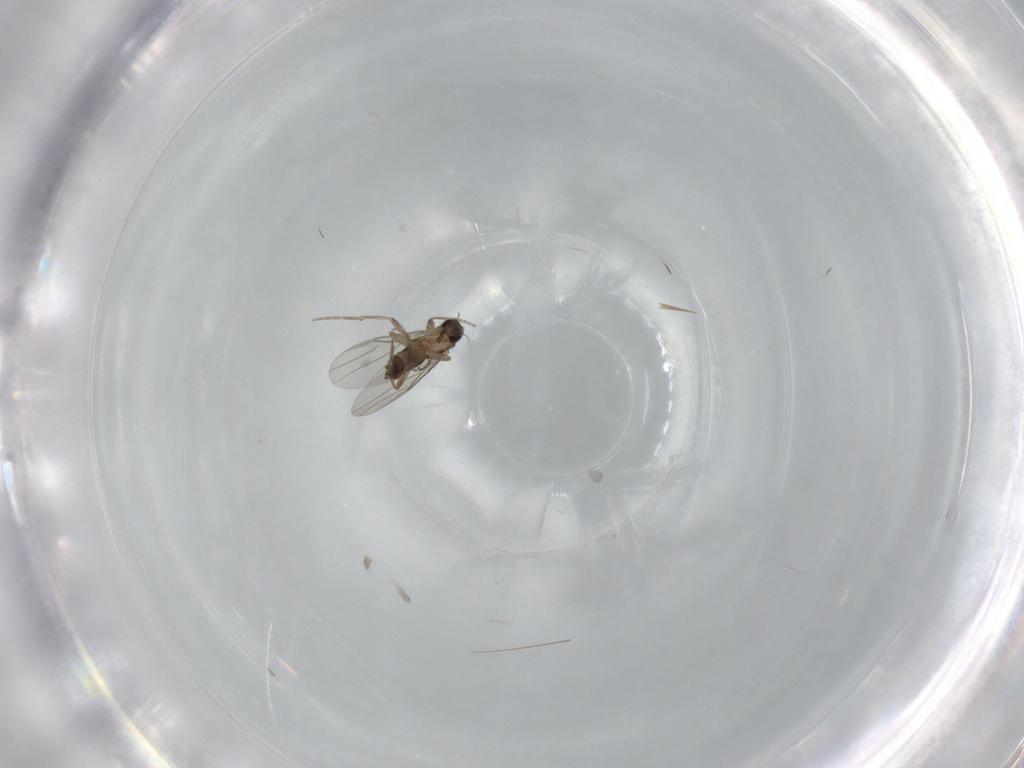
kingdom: Animalia
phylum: Arthropoda
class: Insecta
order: Diptera
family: Phoridae
